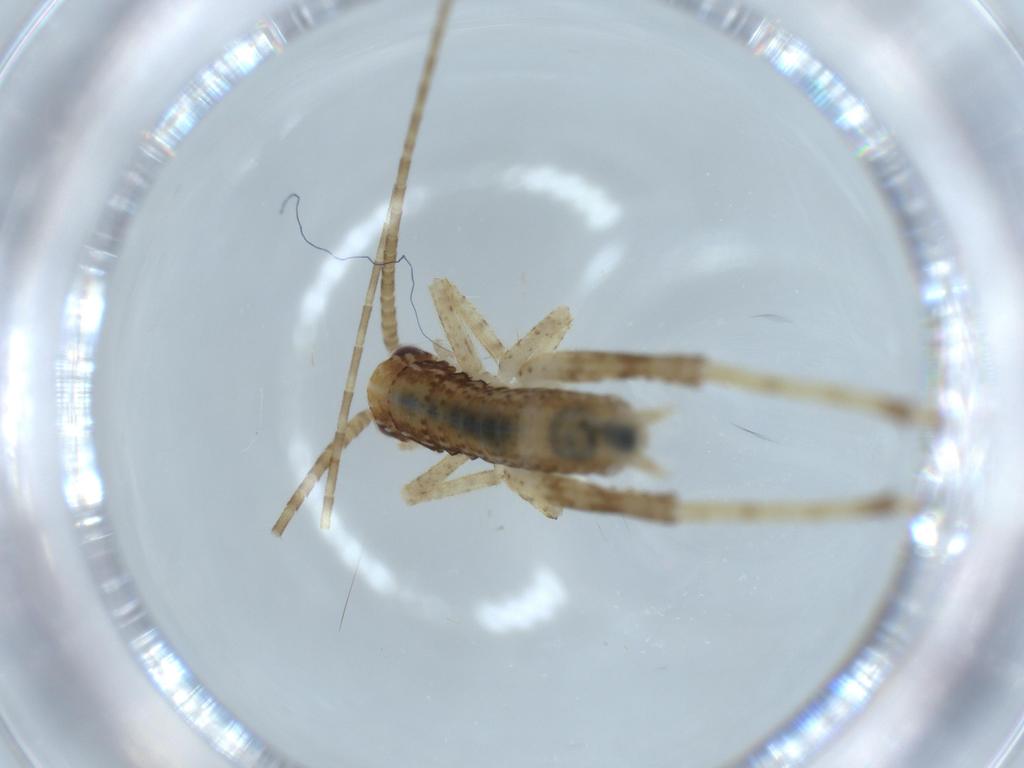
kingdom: Animalia
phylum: Arthropoda
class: Insecta
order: Orthoptera
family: Gryllidae
